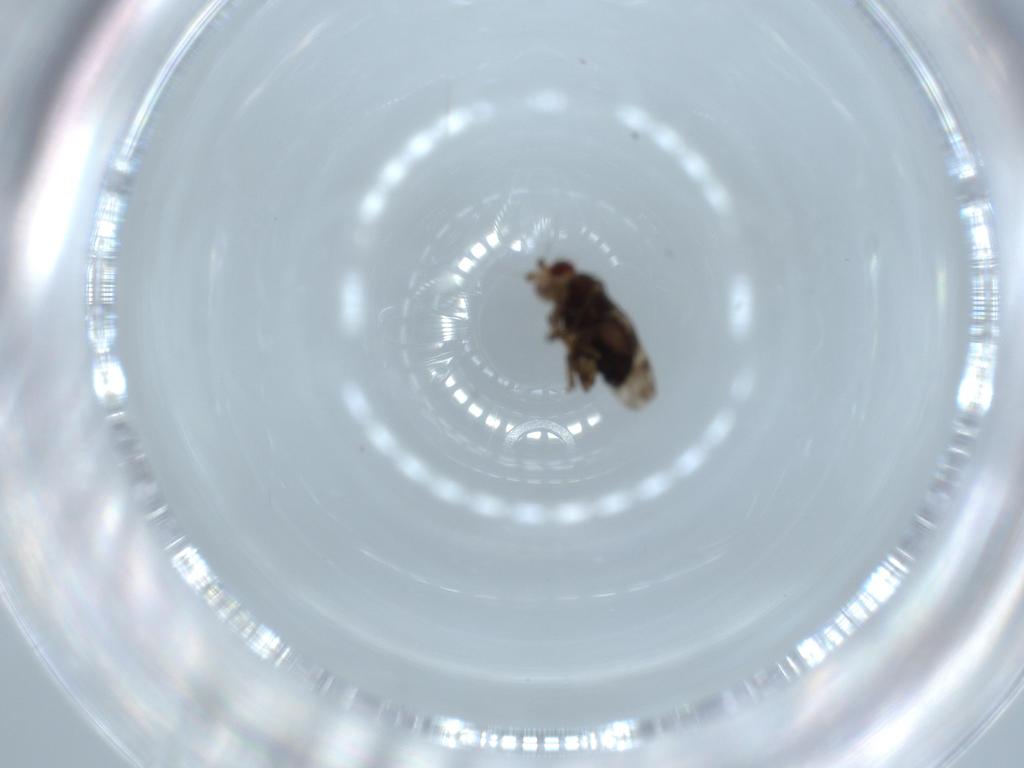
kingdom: Animalia
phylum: Arthropoda
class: Insecta
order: Diptera
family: Sphaeroceridae
